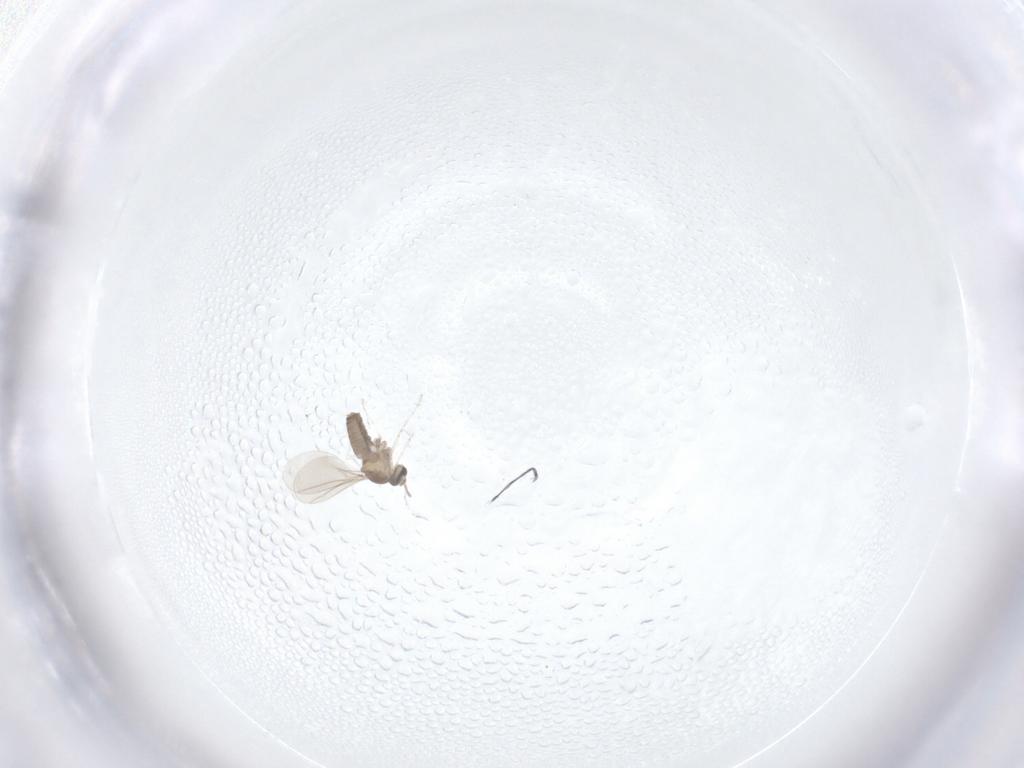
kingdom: Animalia
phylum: Arthropoda
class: Insecta
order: Diptera
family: Cecidomyiidae
